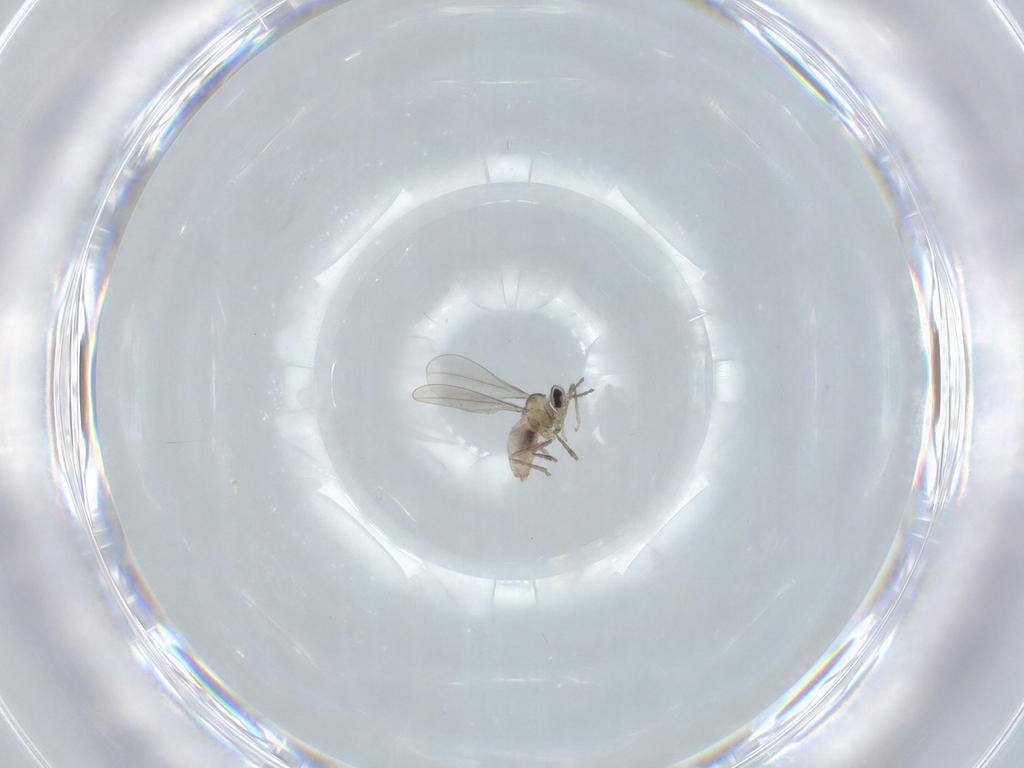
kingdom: Animalia
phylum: Arthropoda
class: Insecta
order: Diptera
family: Cecidomyiidae
